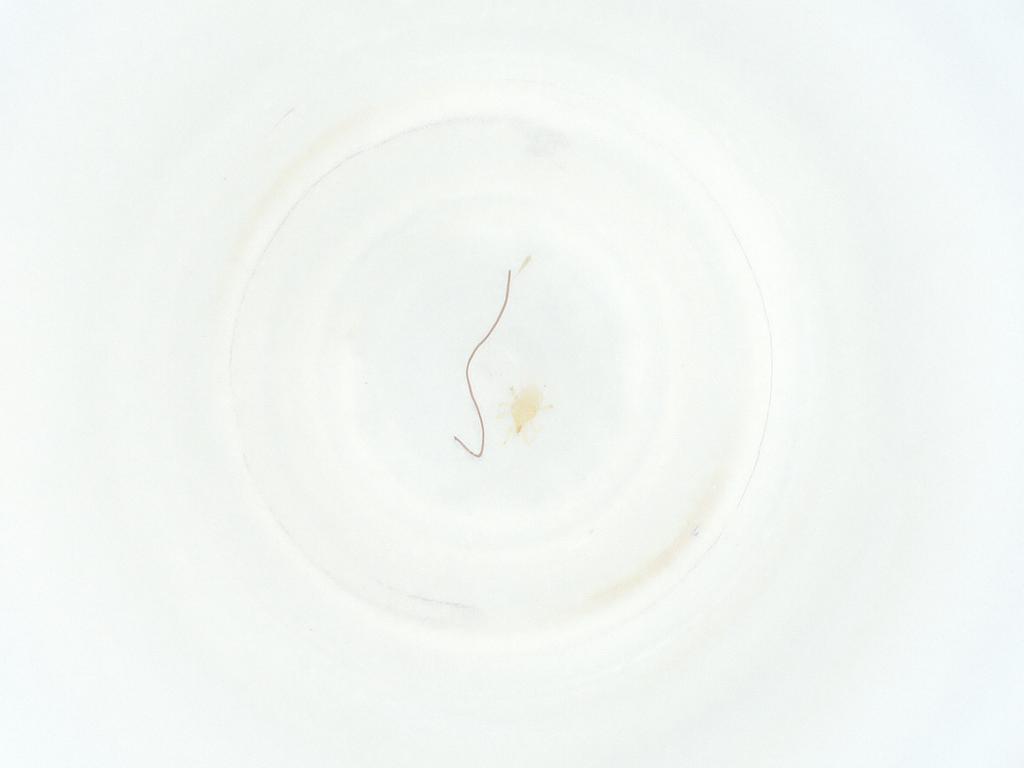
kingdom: Animalia
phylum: Arthropoda
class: Arachnida
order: Mesostigmata
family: Phytoseiidae
